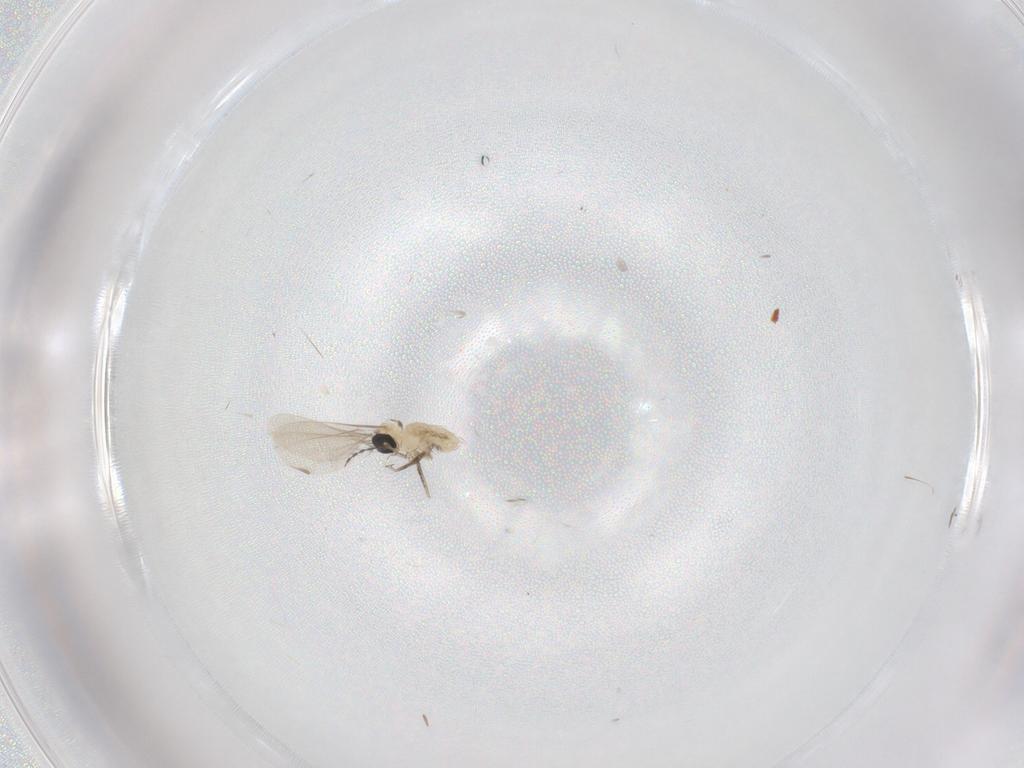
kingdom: Animalia
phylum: Arthropoda
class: Insecta
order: Diptera
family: Cecidomyiidae
